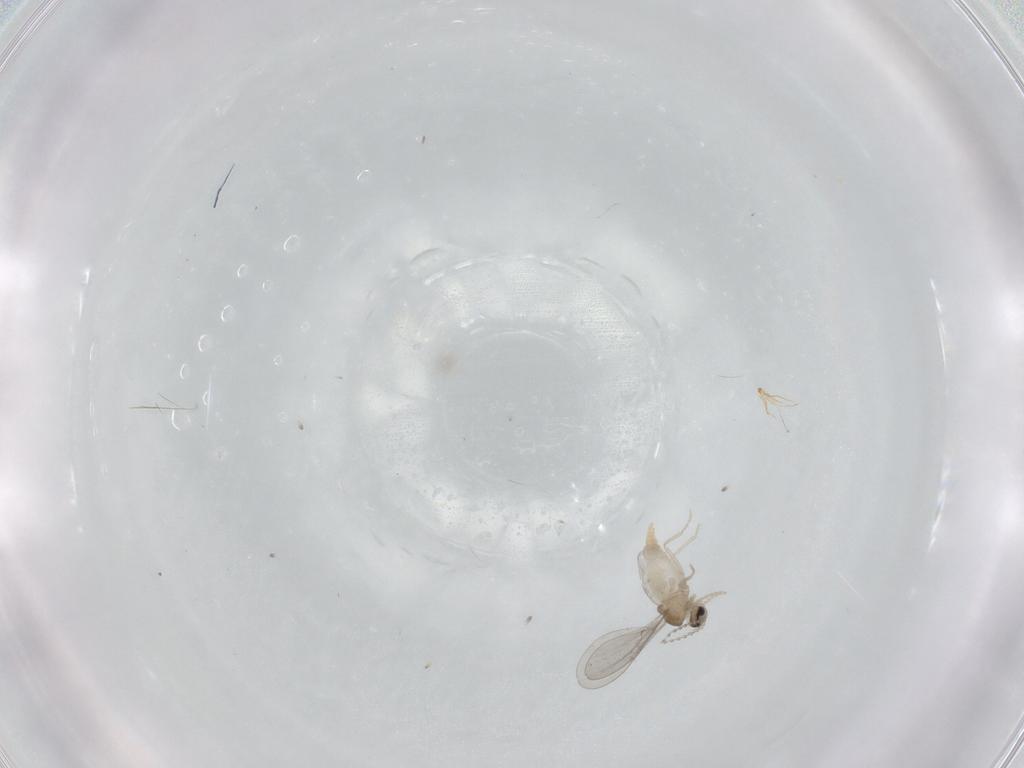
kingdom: Animalia
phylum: Arthropoda
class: Insecta
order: Diptera
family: Cecidomyiidae
